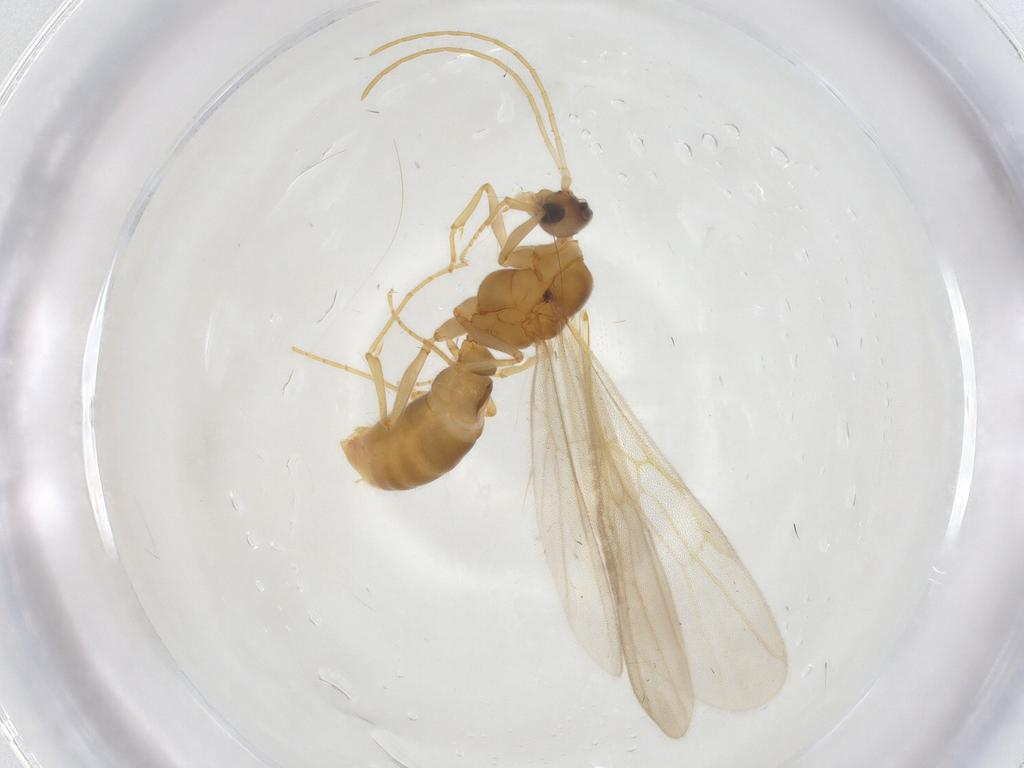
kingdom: Animalia
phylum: Arthropoda
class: Insecta
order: Hymenoptera
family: Formicidae
